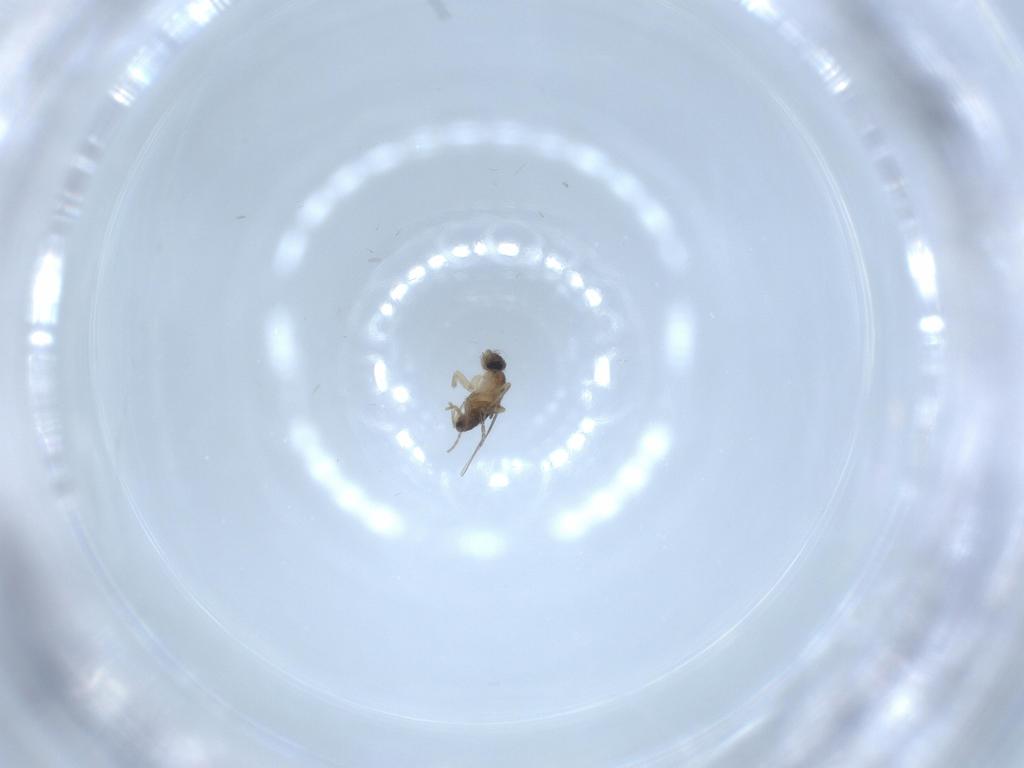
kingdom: Animalia
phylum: Arthropoda
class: Insecta
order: Diptera
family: Phoridae
